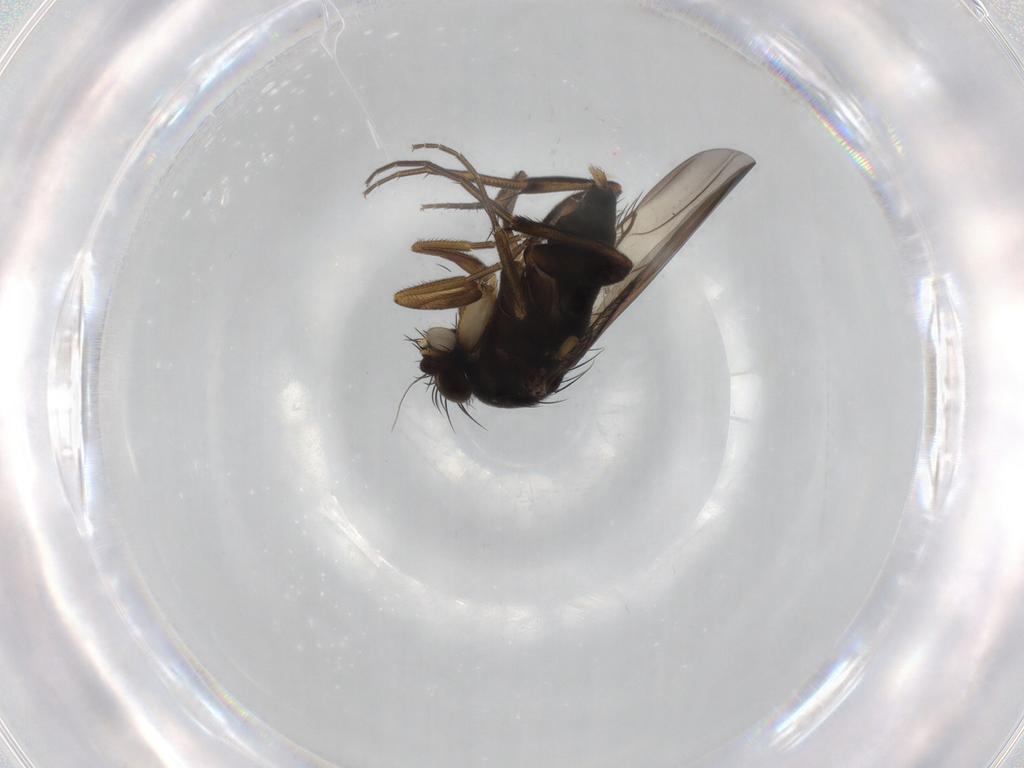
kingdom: Animalia
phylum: Arthropoda
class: Insecta
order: Diptera
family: Phoridae
